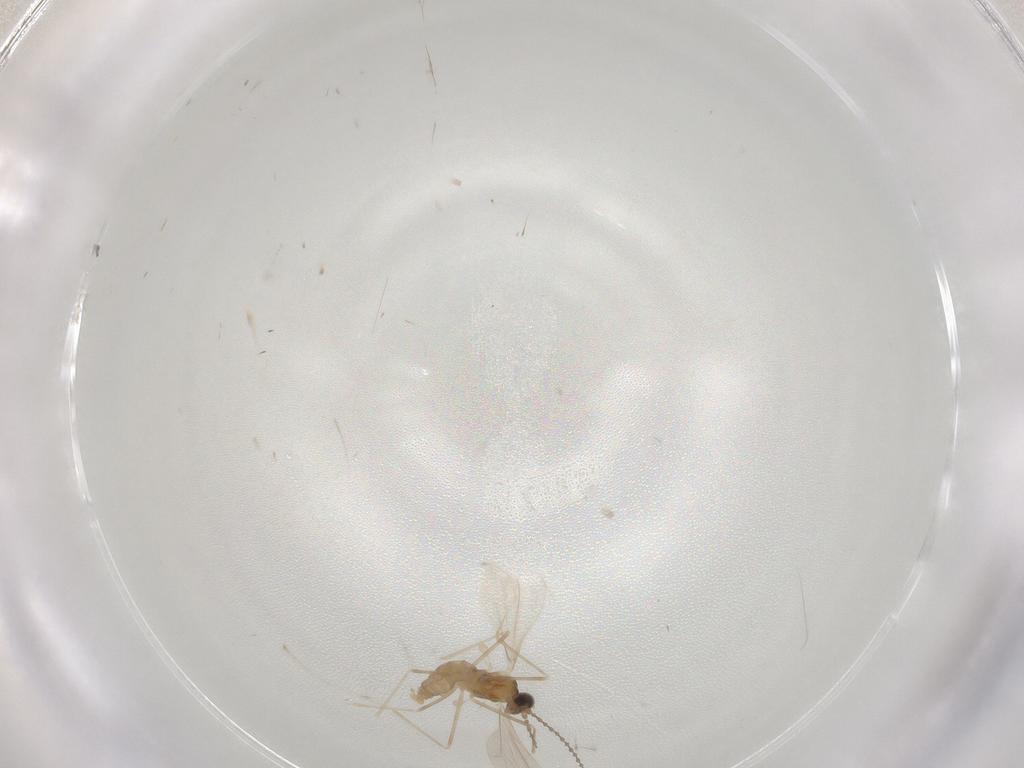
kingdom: Animalia
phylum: Arthropoda
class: Insecta
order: Diptera
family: Cecidomyiidae
